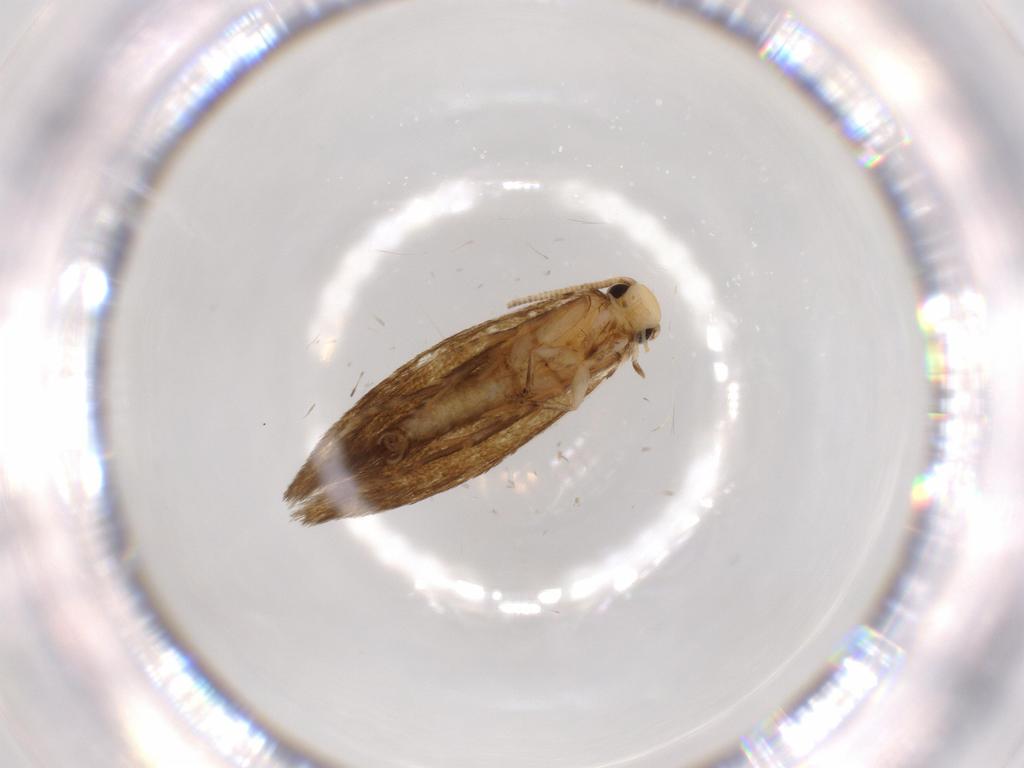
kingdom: Animalia
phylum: Arthropoda
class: Insecta
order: Lepidoptera
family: Tineidae
